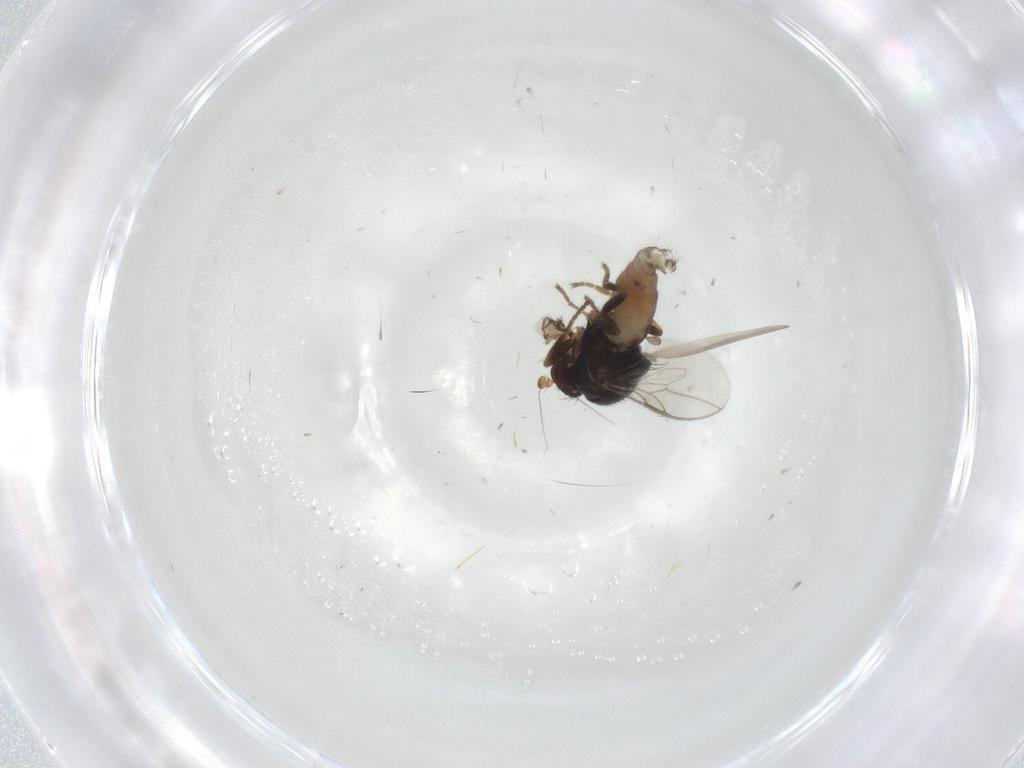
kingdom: Animalia
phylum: Arthropoda
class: Insecta
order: Diptera
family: Sphaeroceridae
